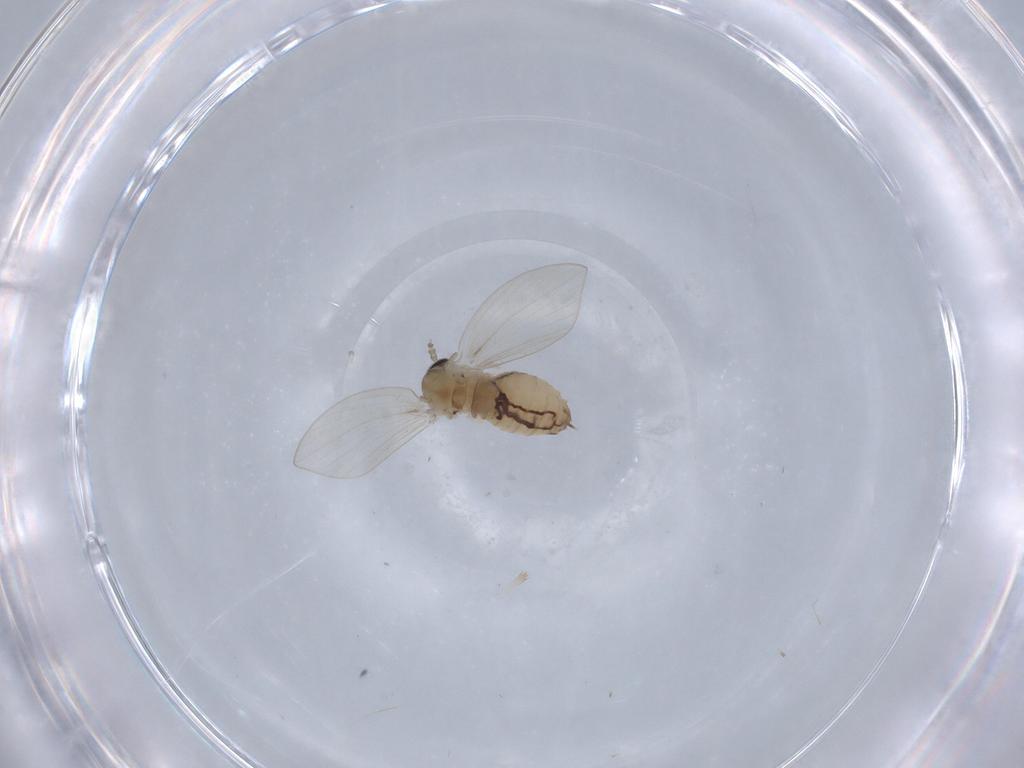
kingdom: Animalia
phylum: Arthropoda
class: Insecta
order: Diptera
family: Psychodidae
